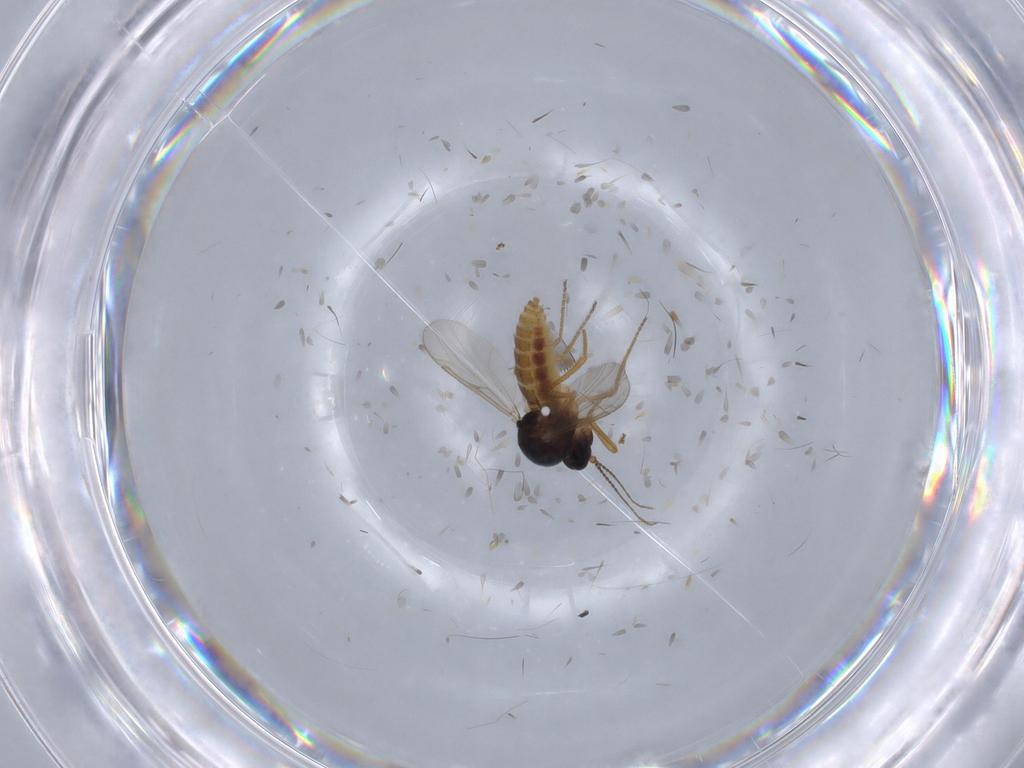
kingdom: Animalia
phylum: Arthropoda
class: Insecta
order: Diptera
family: Ceratopogonidae
